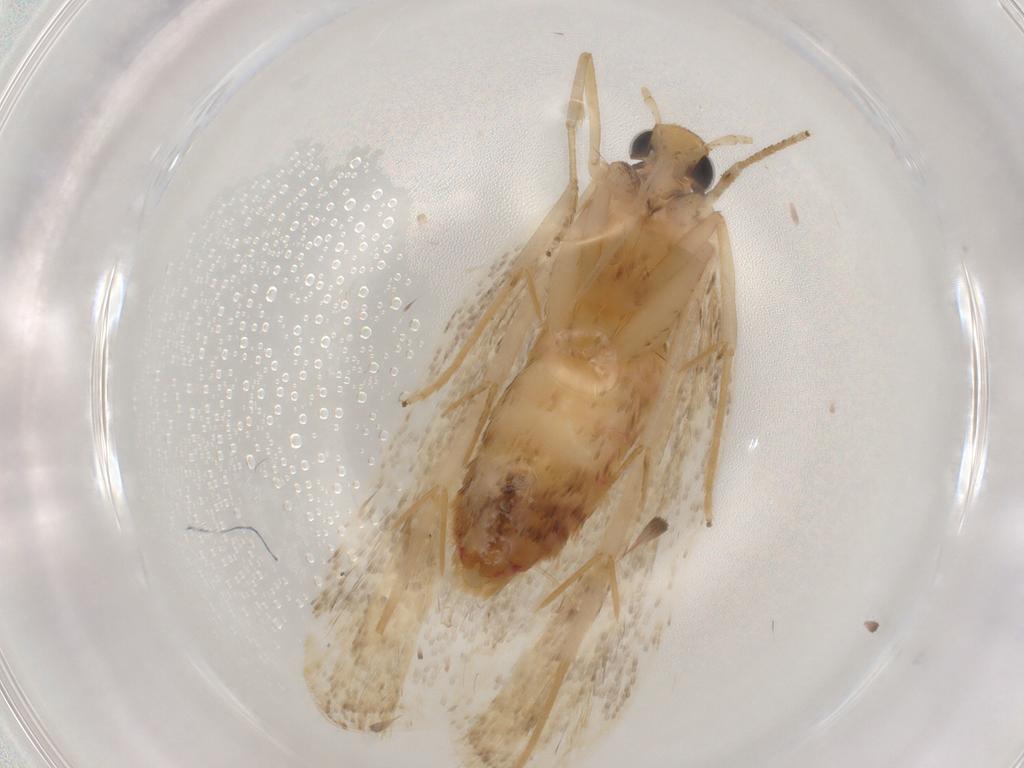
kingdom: Animalia
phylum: Arthropoda
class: Insecta
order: Lepidoptera
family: Lecithoceridae
